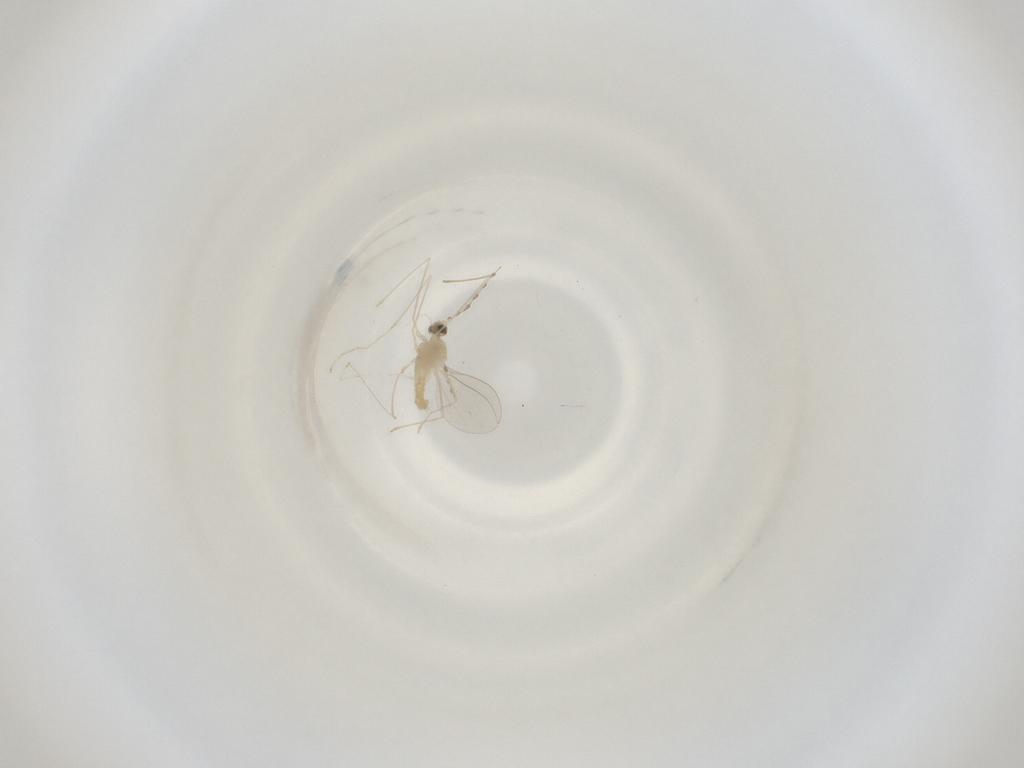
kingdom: Animalia
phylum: Arthropoda
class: Insecta
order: Diptera
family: Cecidomyiidae
